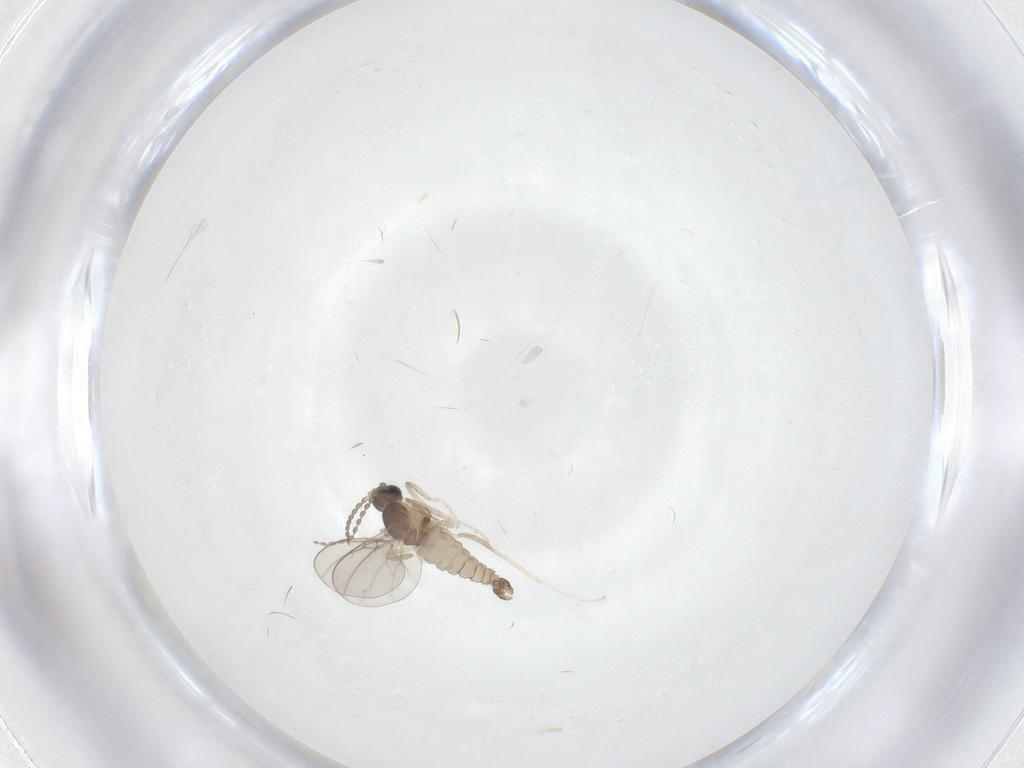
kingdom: Animalia
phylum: Arthropoda
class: Insecta
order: Diptera
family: Cecidomyiidae
